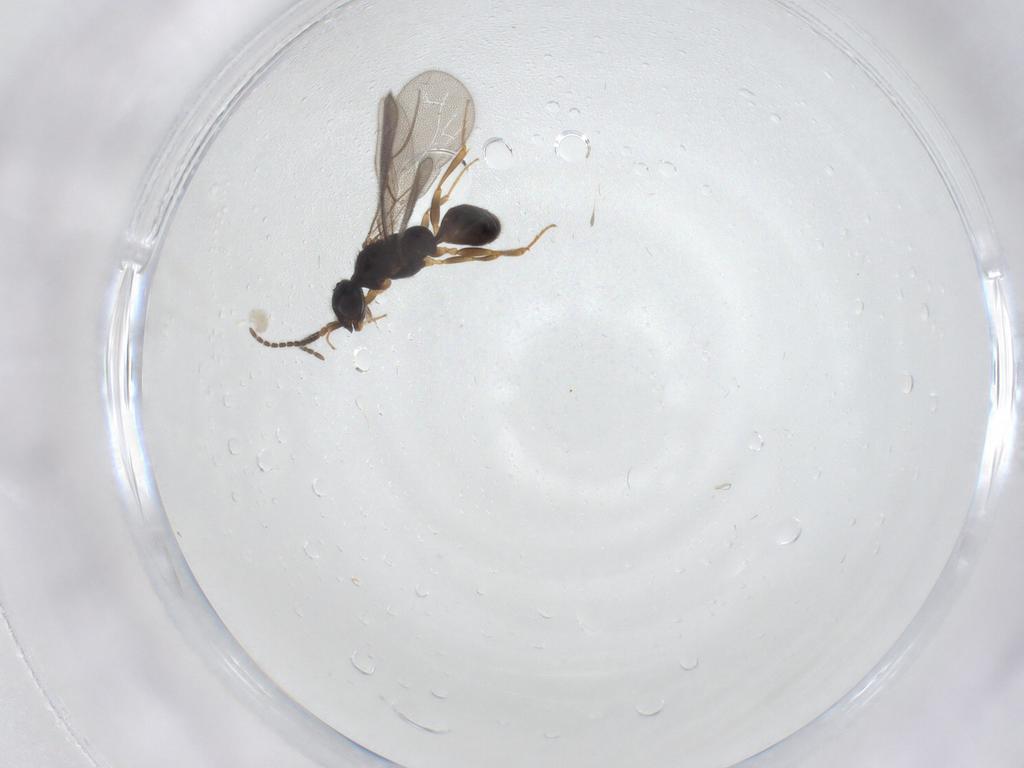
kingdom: Animalia
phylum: Arthropoda
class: Insecta
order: Hymenoptera
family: Bethylidae
